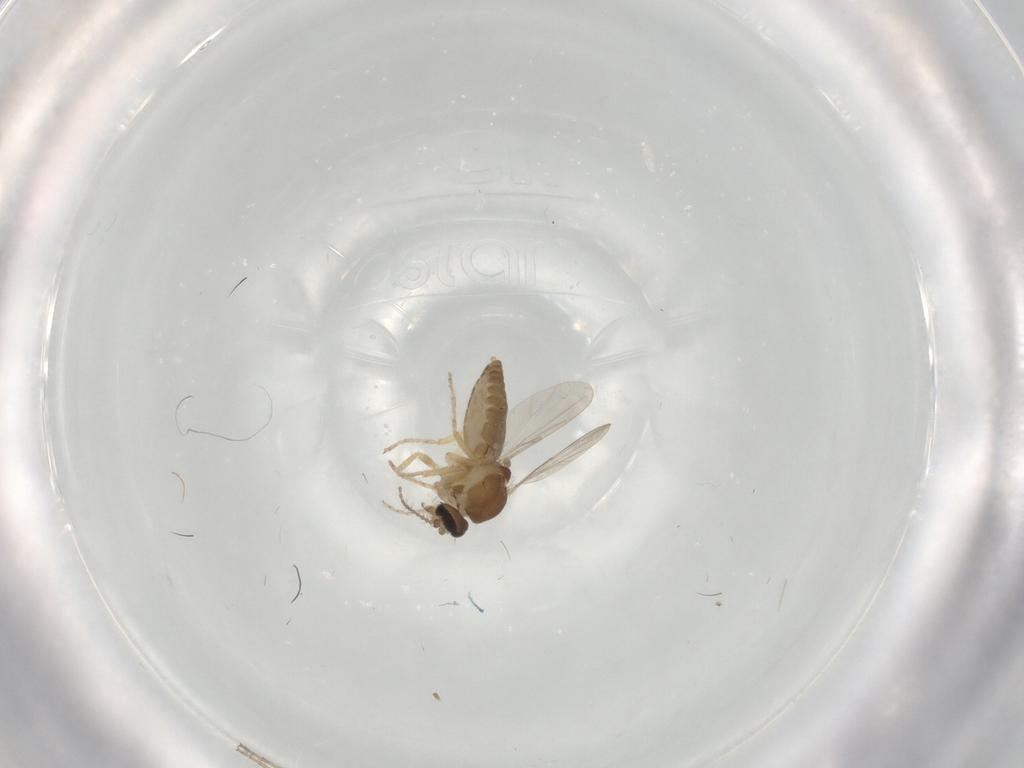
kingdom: Animalia
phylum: Arthropoda
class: Insecta
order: Diptera
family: Ceratopogonidae
